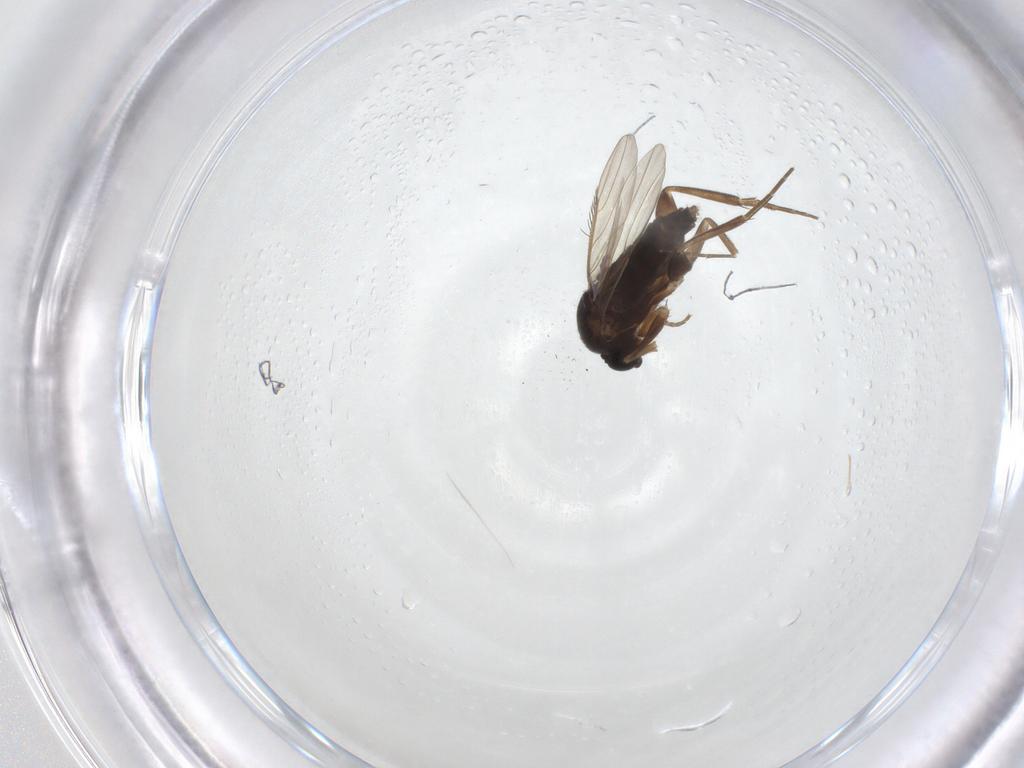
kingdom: Animalia
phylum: Arthropoda
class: Insecta
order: Diptera
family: Phoridae
